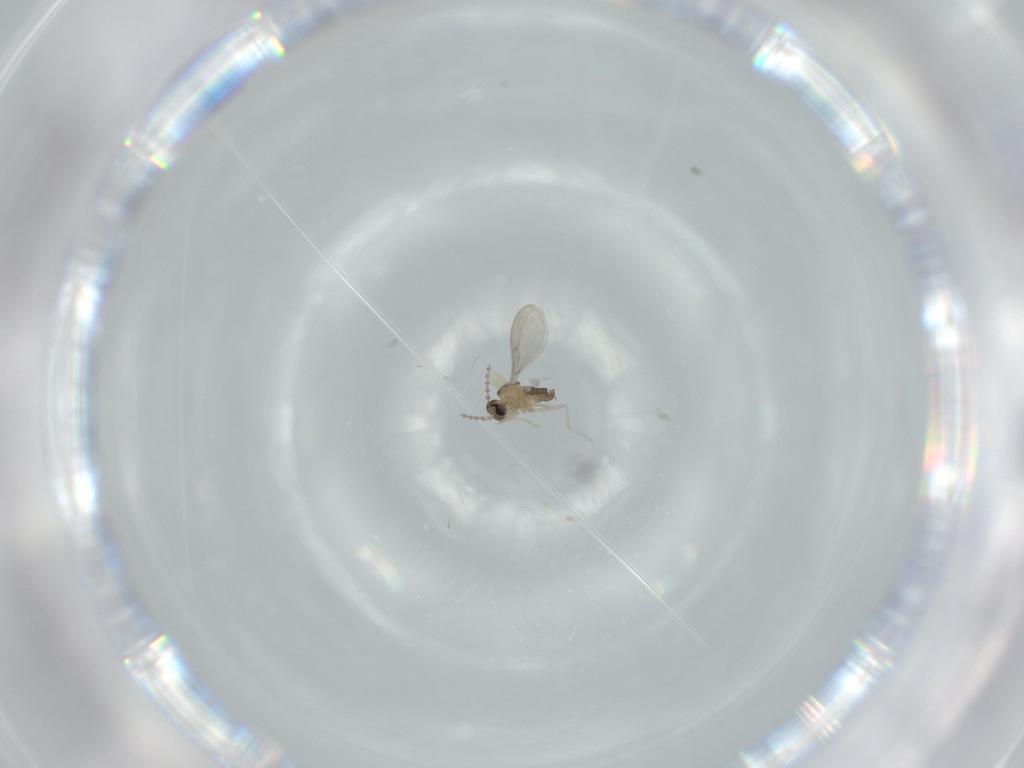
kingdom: Animalia
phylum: Arthropoda
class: Insecta
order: Diptera
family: Cecidomyiidae
